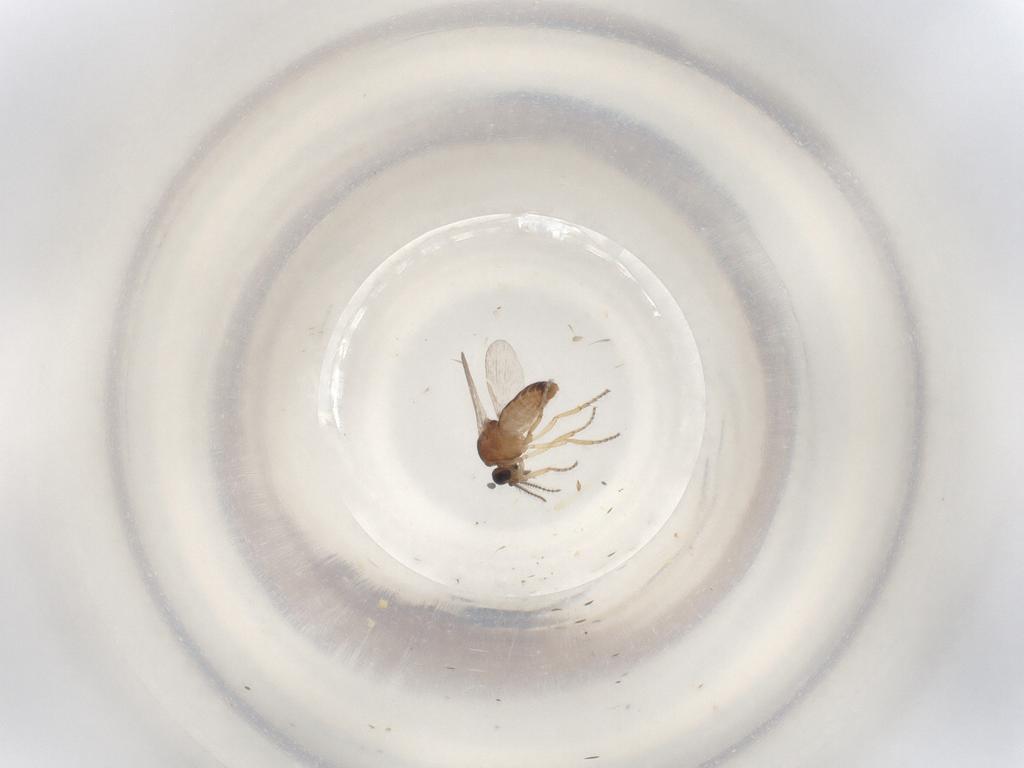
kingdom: Animalia
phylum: Arthropoda
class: Insecta
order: Diptera
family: Ceratopogonidae
